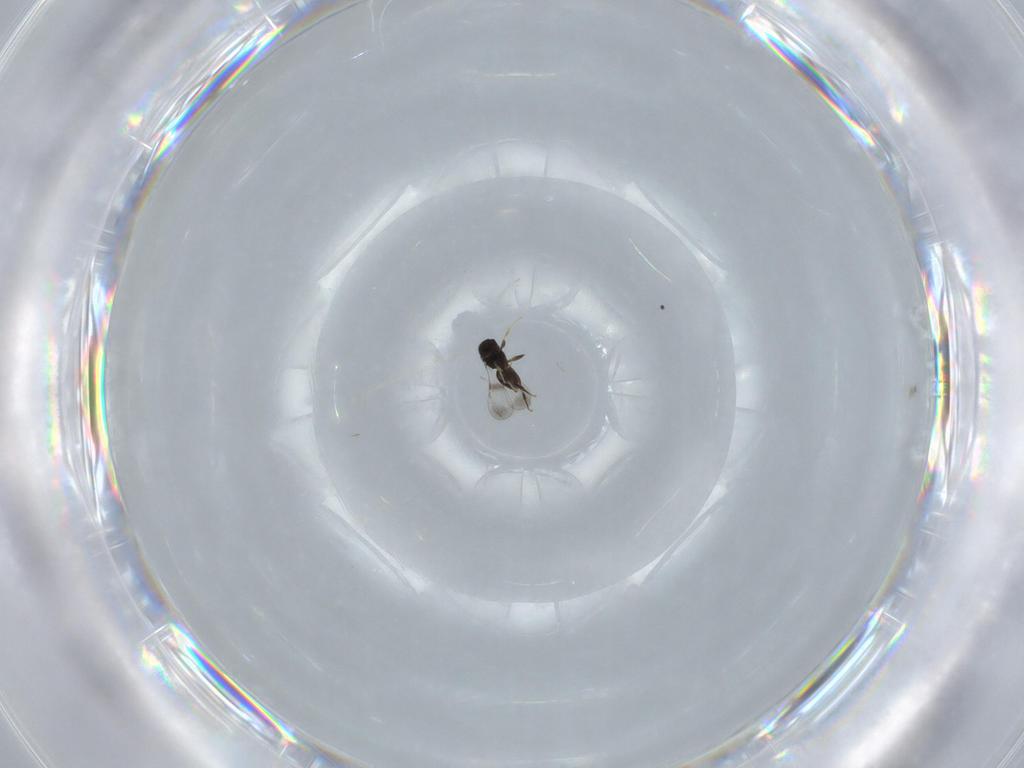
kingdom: Animalia
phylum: Arthropoda
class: Insecta
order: Hymenoptera
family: Ceraphronidae
